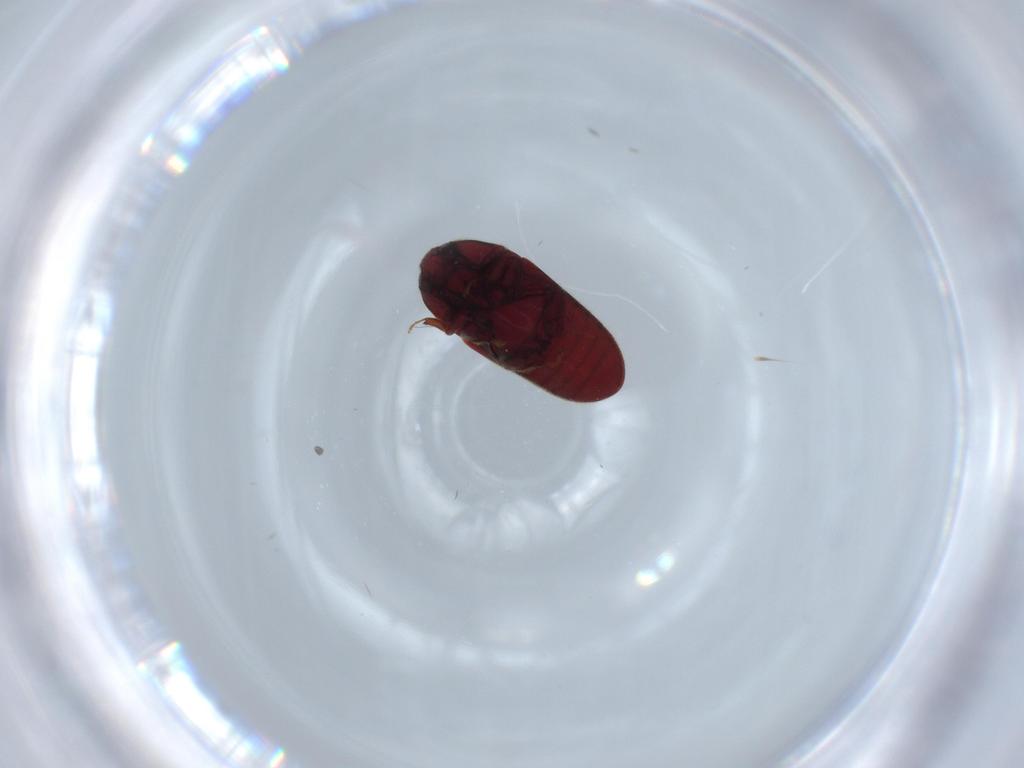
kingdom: Animalia
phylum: Arthropoda
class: Insecta
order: Coleoptera
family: Throscidae
